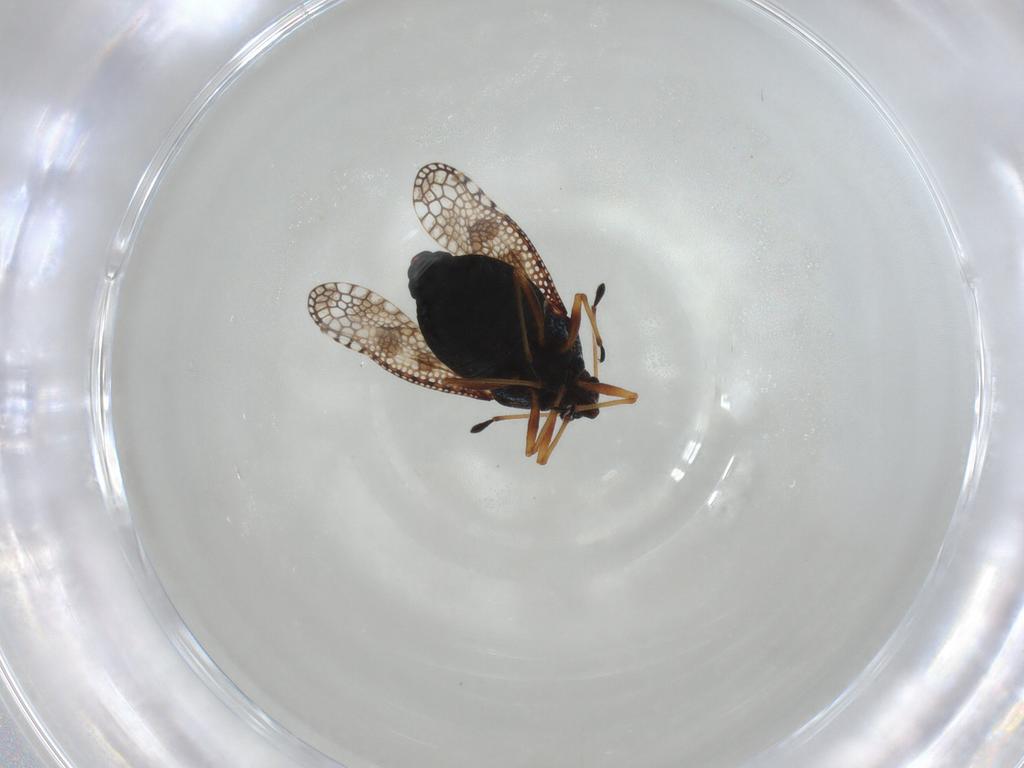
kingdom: Animalia
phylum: Arthropoda
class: Insecta
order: Hemiptera
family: Tingidae
